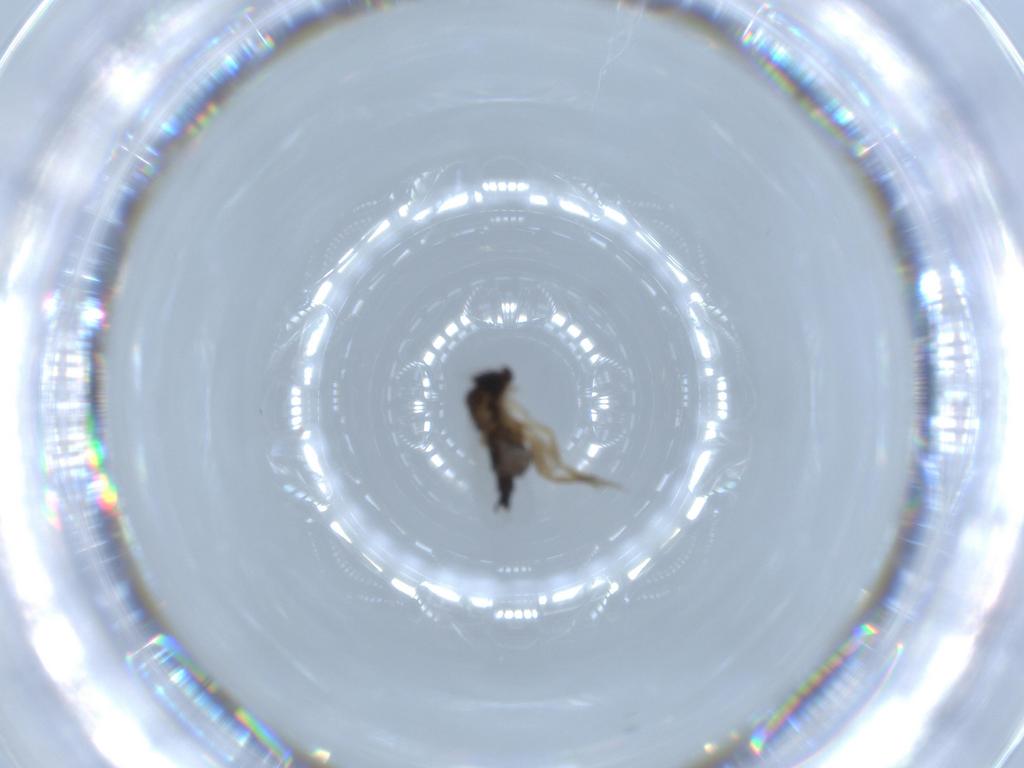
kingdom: Animalia
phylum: Arthropoda
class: Insecta
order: Diptera
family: Phoridae
